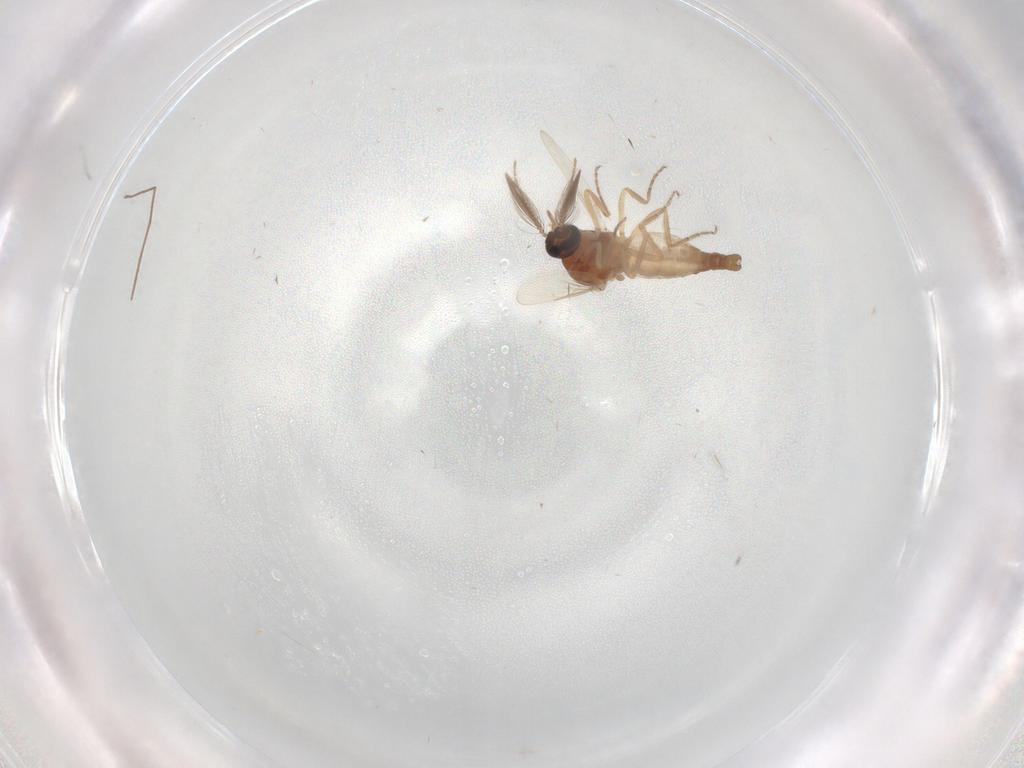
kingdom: Animalia
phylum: Arthropoda
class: Insecta
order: Diptera
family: Ceratopogonidae
